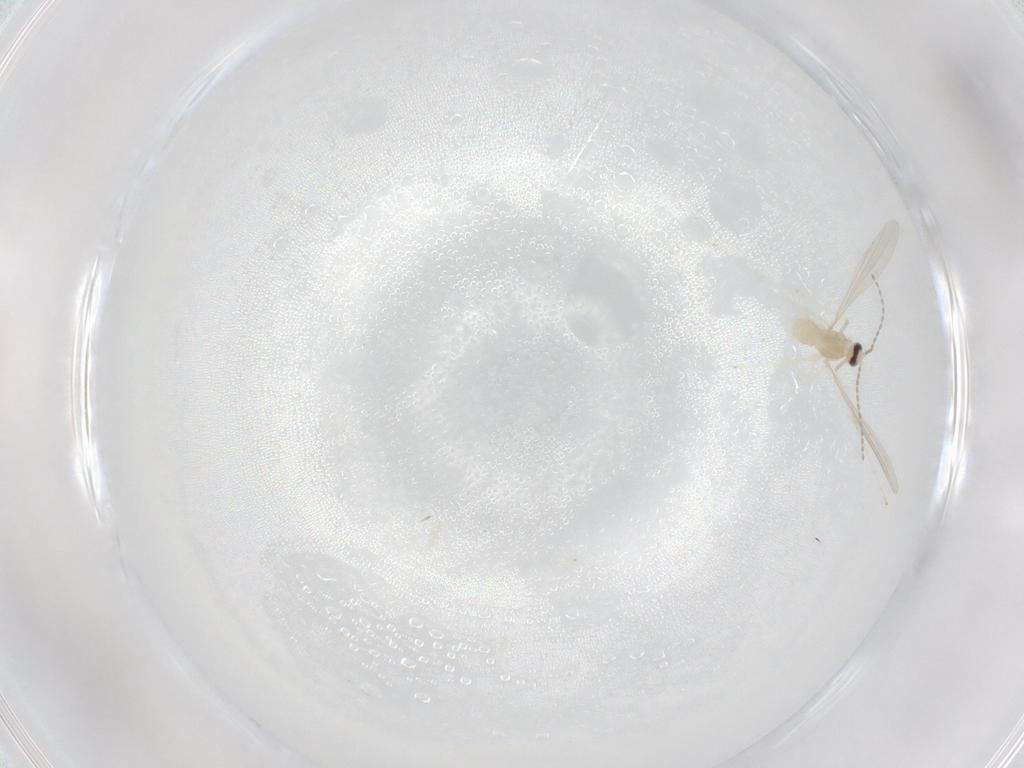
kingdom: Animalia
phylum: Arthropoda
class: Insecta
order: Diptera
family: Cecidomyiidae
